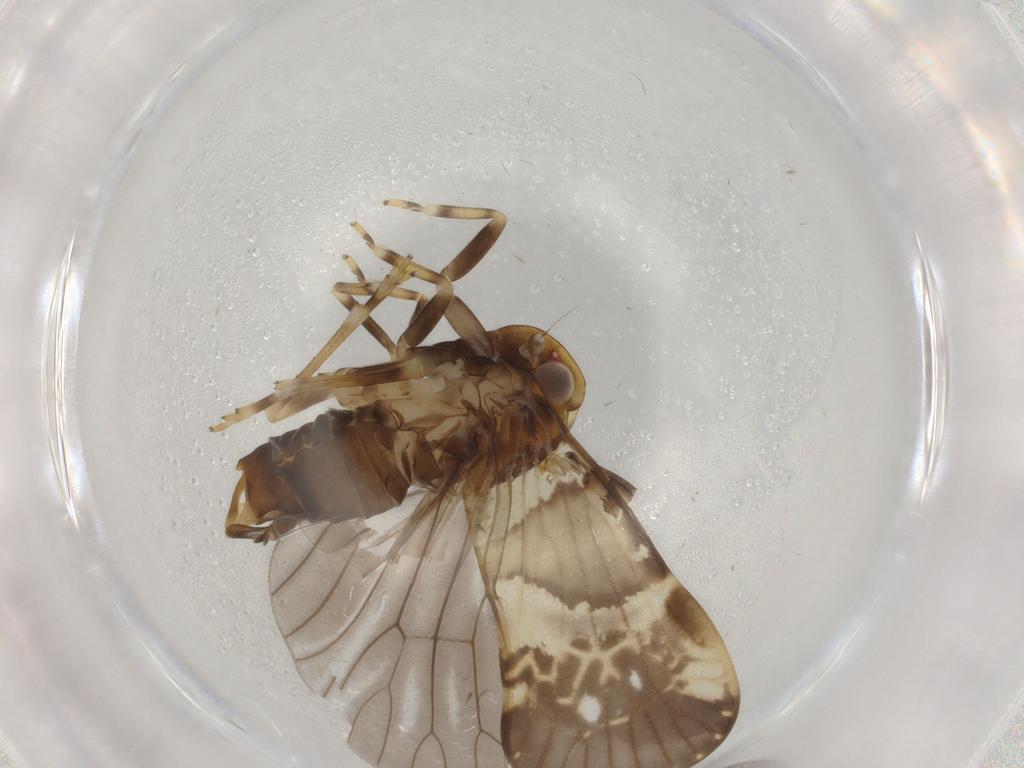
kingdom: Animalia
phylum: Arthropoda
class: Insecta
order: Hemiptera
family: Cixiidae
